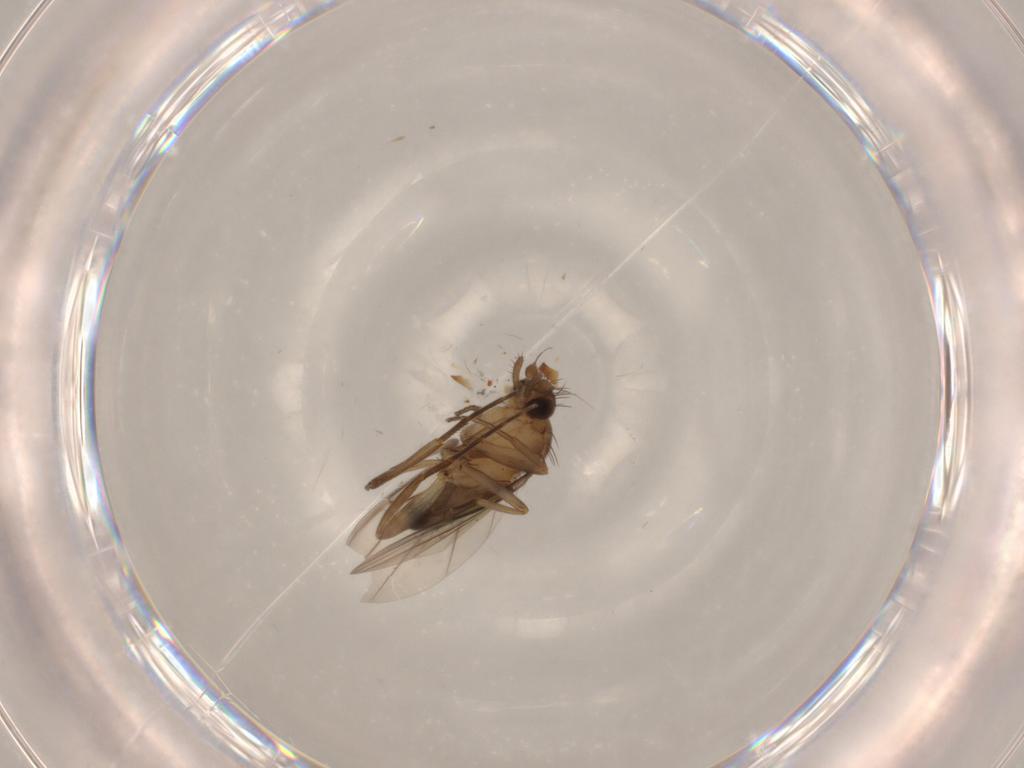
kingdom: Animalia
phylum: Arthropoda
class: Insecta
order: Diptera
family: Phoridae
